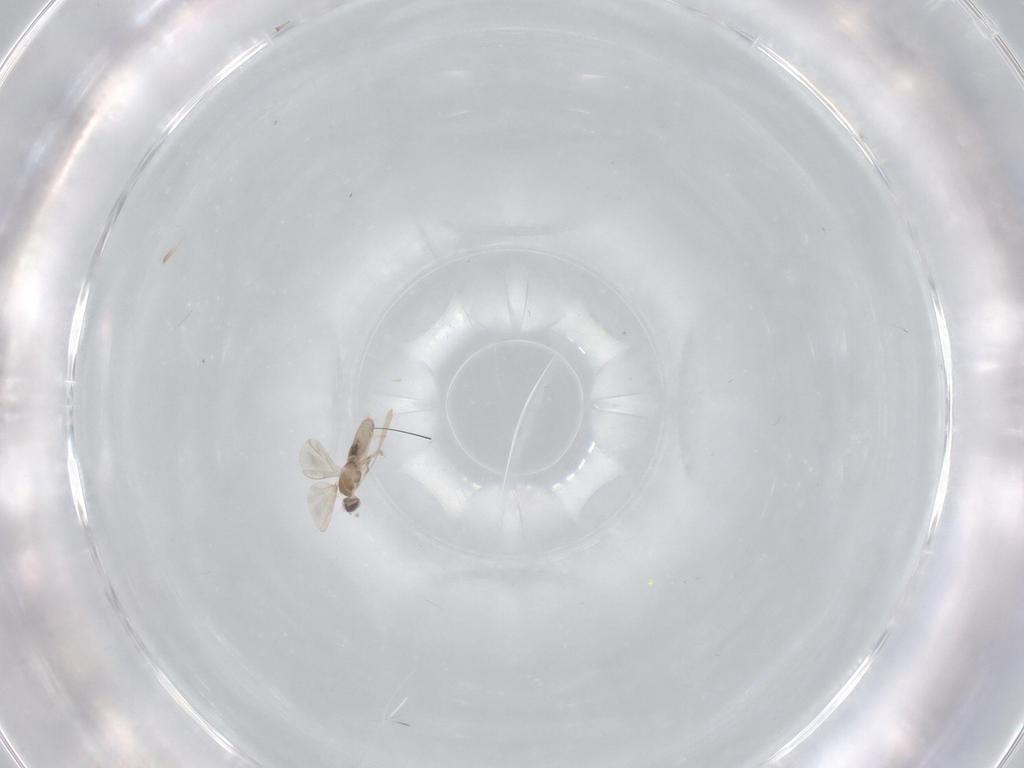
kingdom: Animalia
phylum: Arthropoda
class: Insecta
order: Diptera
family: Cecidomyiidae
